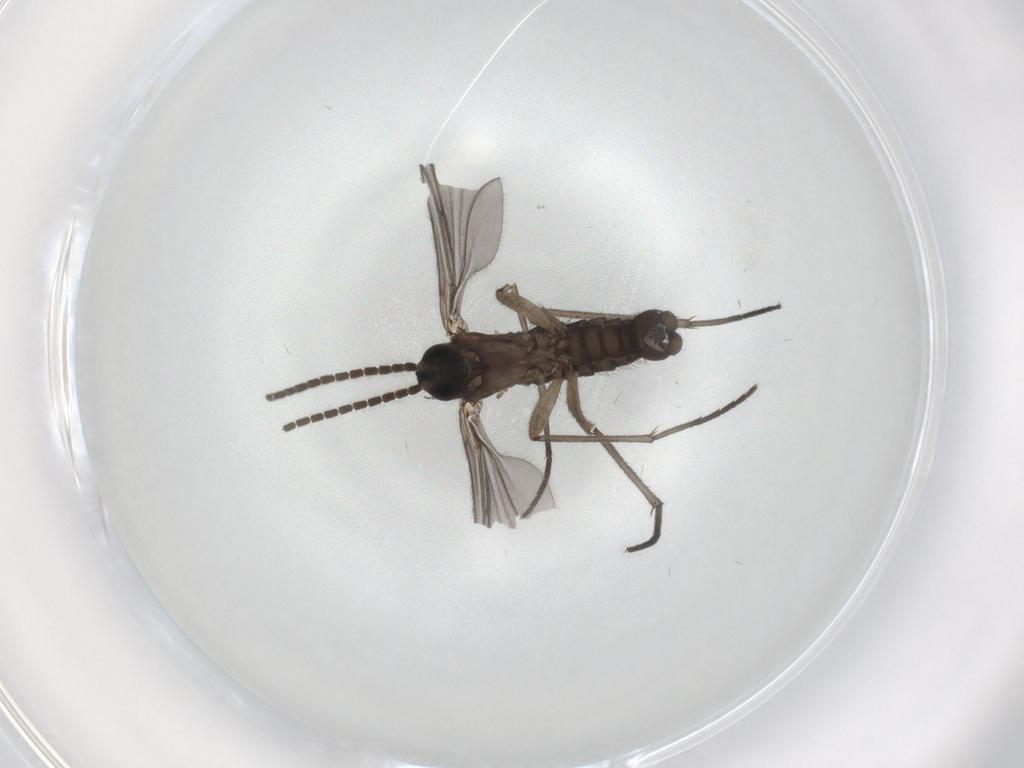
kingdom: Animalia
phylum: Arthropoda
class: Insecta
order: Diptera
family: Sciaridae
